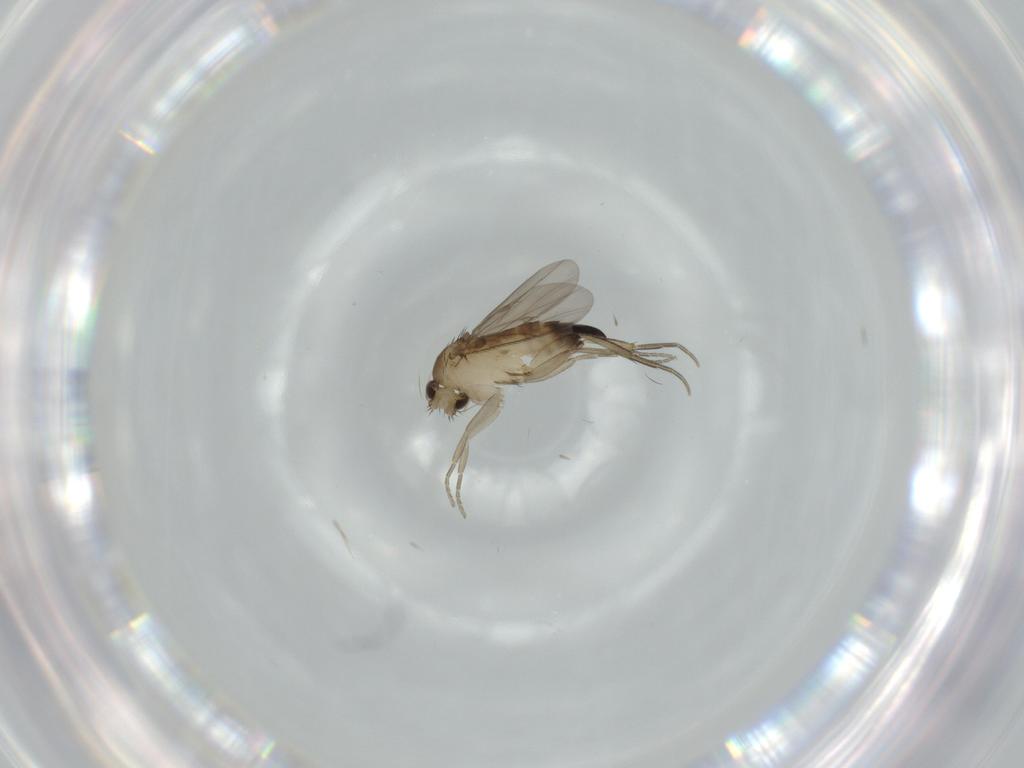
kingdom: Animalia
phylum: Arthropoda
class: Insecta
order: Diptera
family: Phoridae
